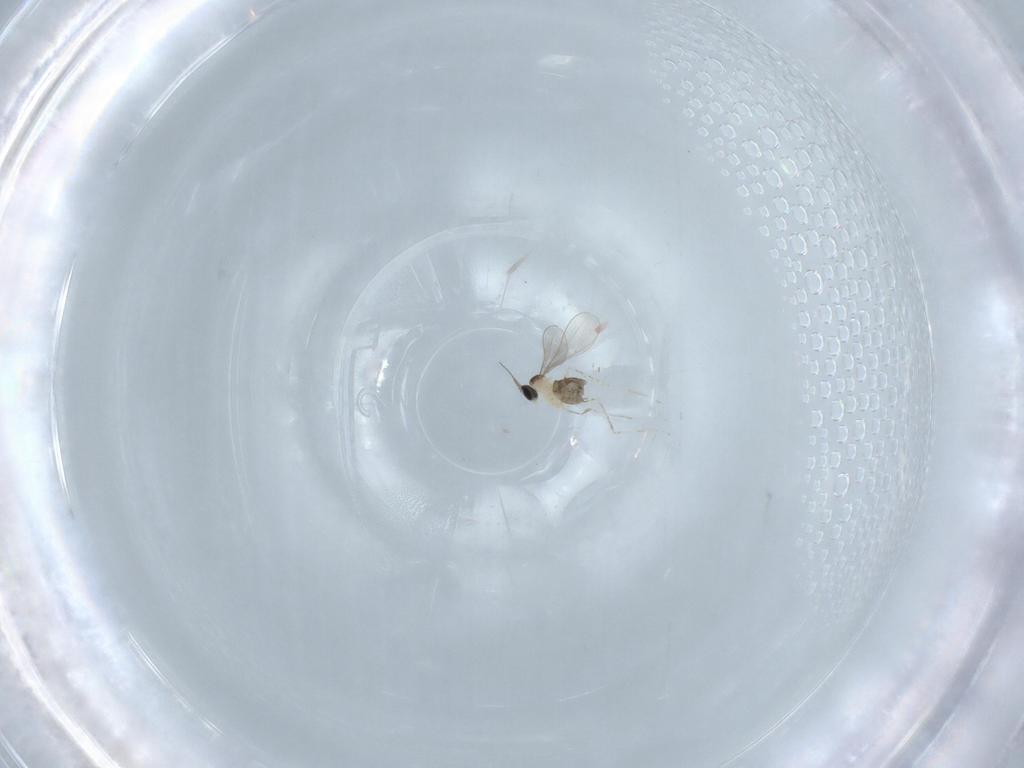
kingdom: Animalia
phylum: Arthropoda
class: Insecta
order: Diptera
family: Cecidomyiidae
